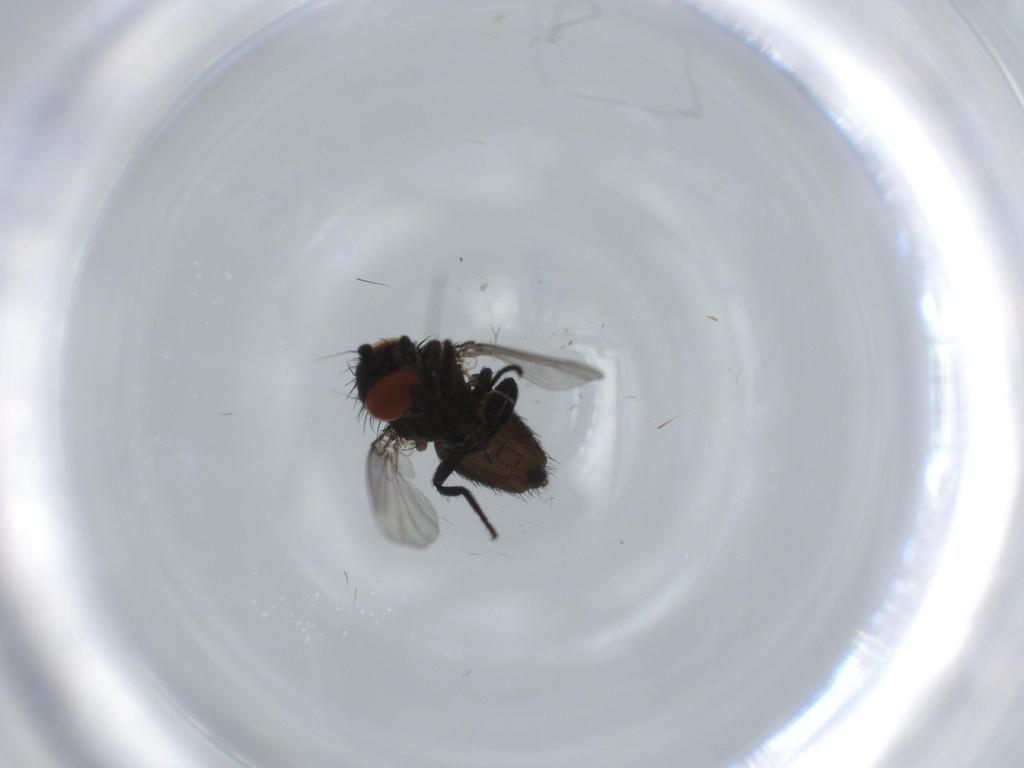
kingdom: Animalia
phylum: Arthropoda
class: Insecta
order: Diptera
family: Milichiidae
